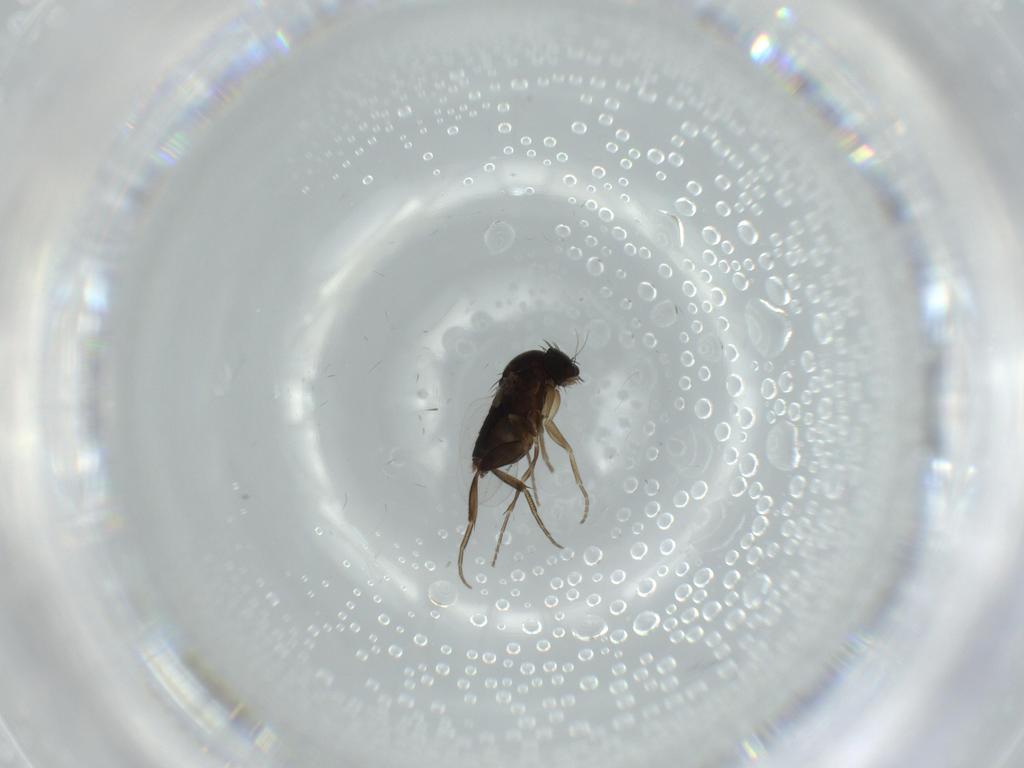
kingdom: Animalia
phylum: Arthropoda
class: Insecta
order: Diptera
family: Phoridae
